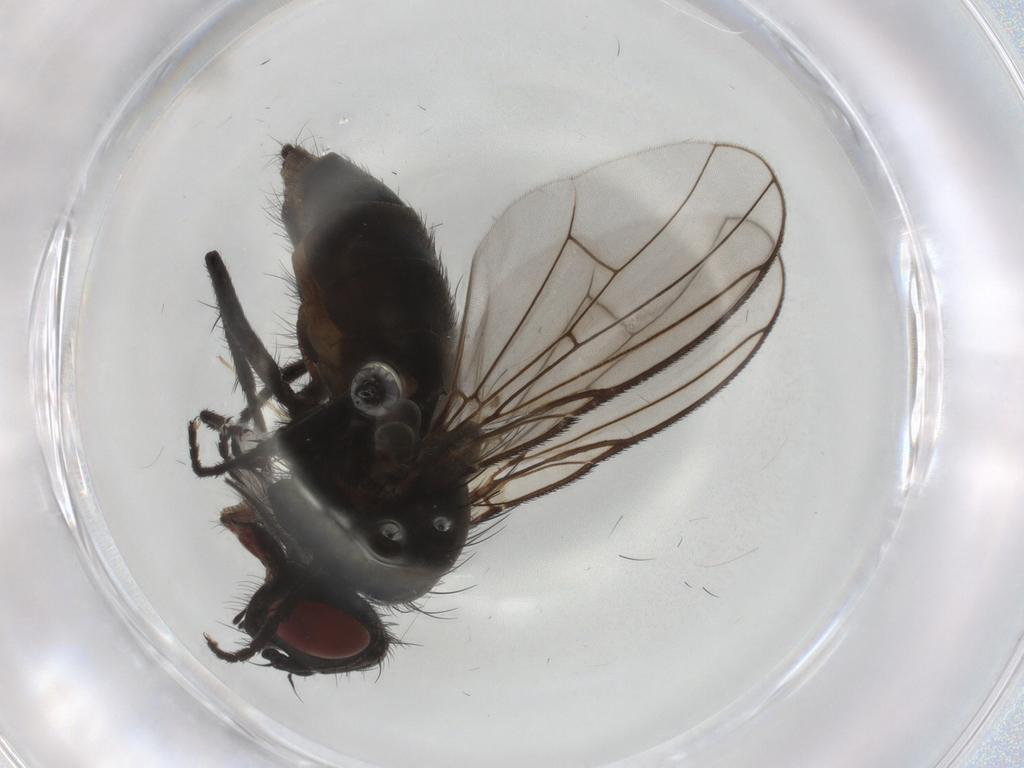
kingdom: Animalia
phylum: Arthropoda
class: Insecta
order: Diptera
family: Chironomidae
